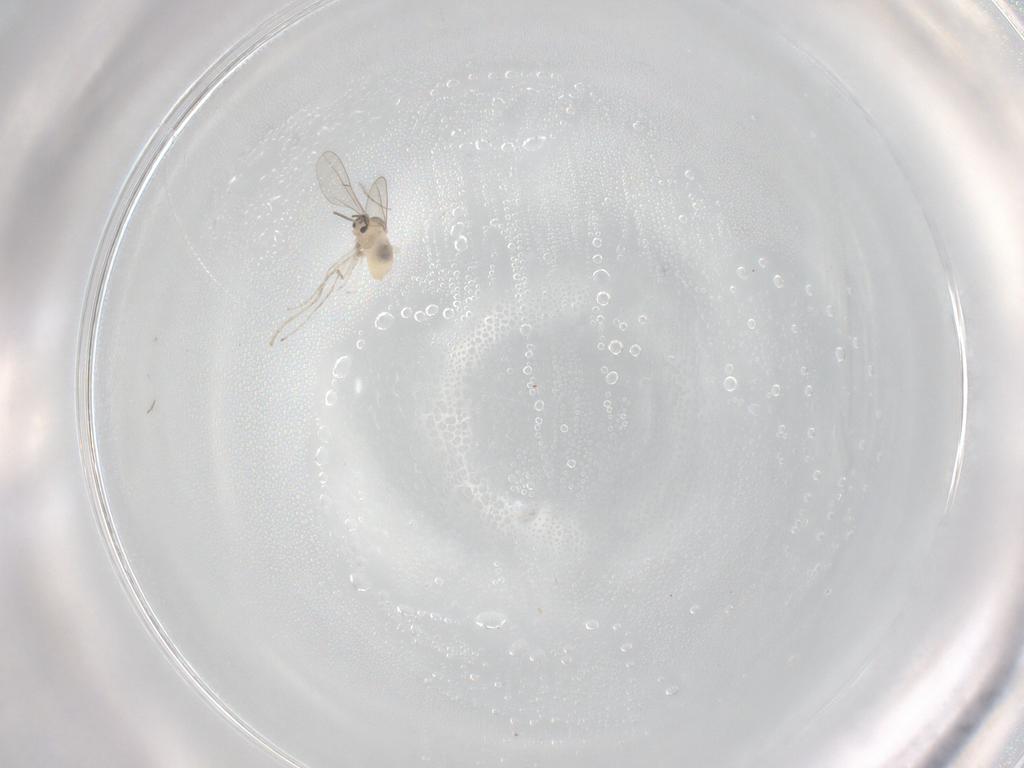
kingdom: Animalia
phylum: Arthropoda
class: Insecta
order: Diptera
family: Cecidomyiidae
